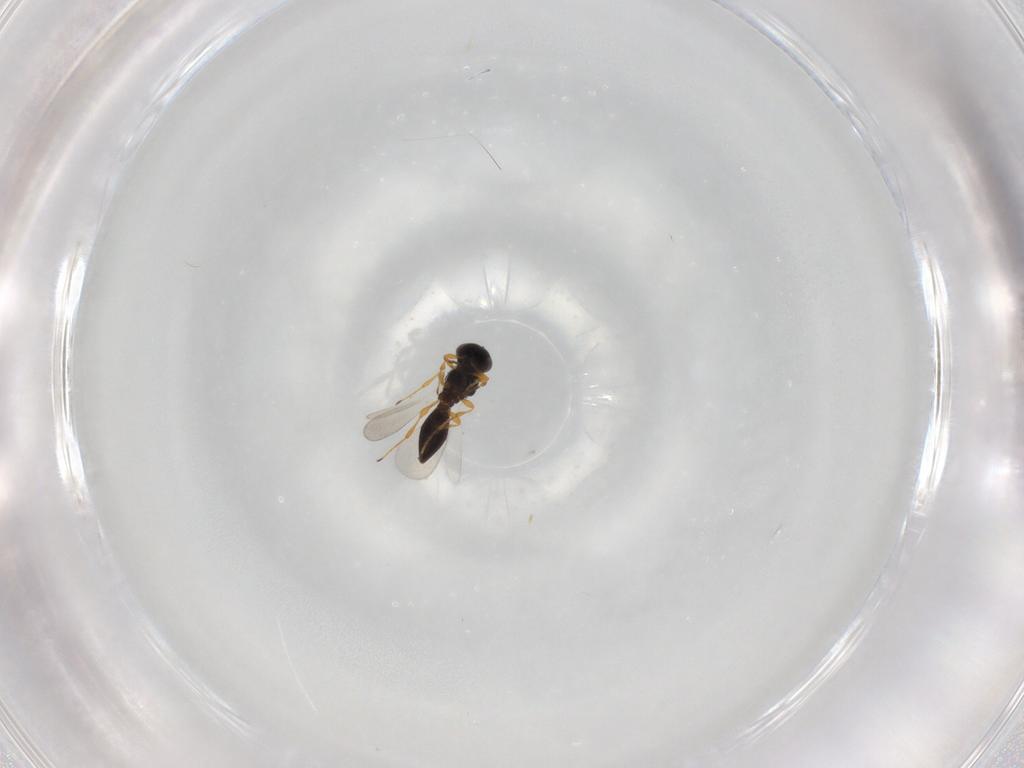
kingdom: Animalia
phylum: Arthropoda
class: Insecta
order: Hymenoptera
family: Platygastridae
